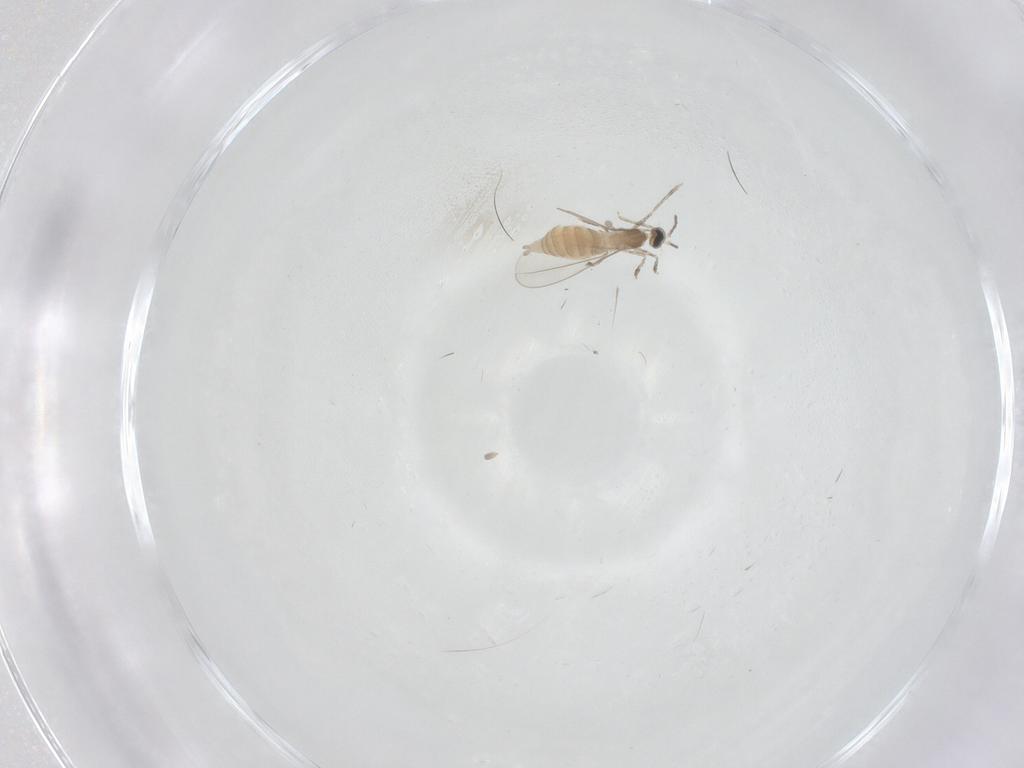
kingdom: Animalia
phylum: Arthropoda
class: Insecta
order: Diptera
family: Cecidomyiidae
